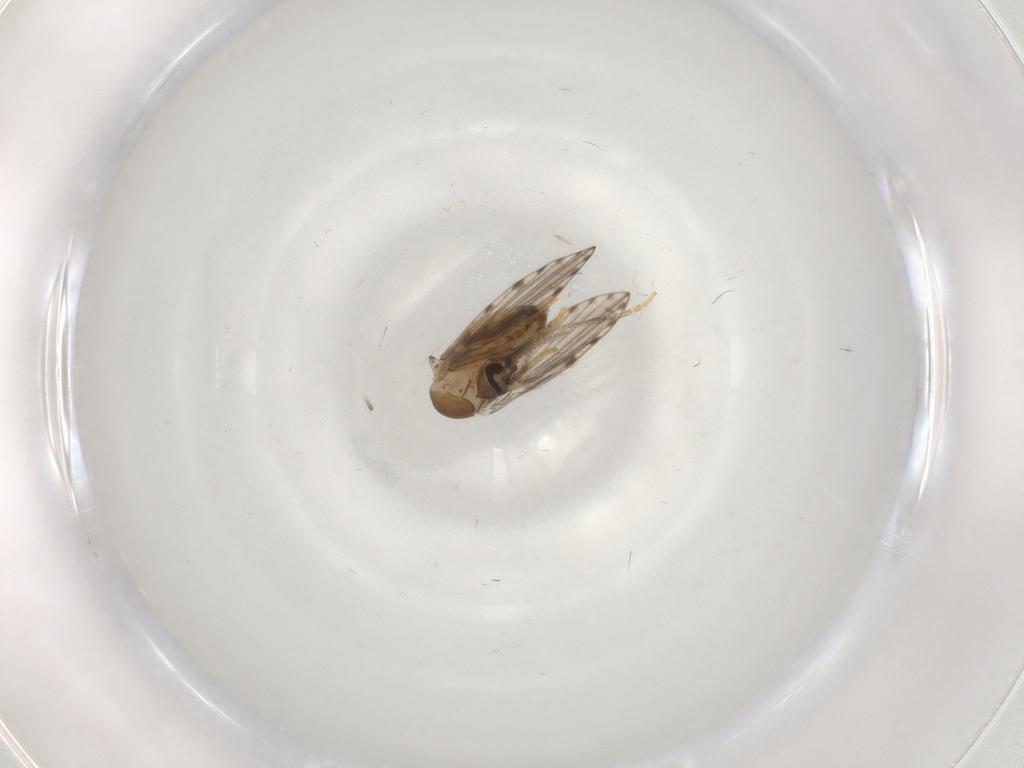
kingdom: Animalia
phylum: Arthropoda
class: Insecta
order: Diptera
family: Psychodidae
